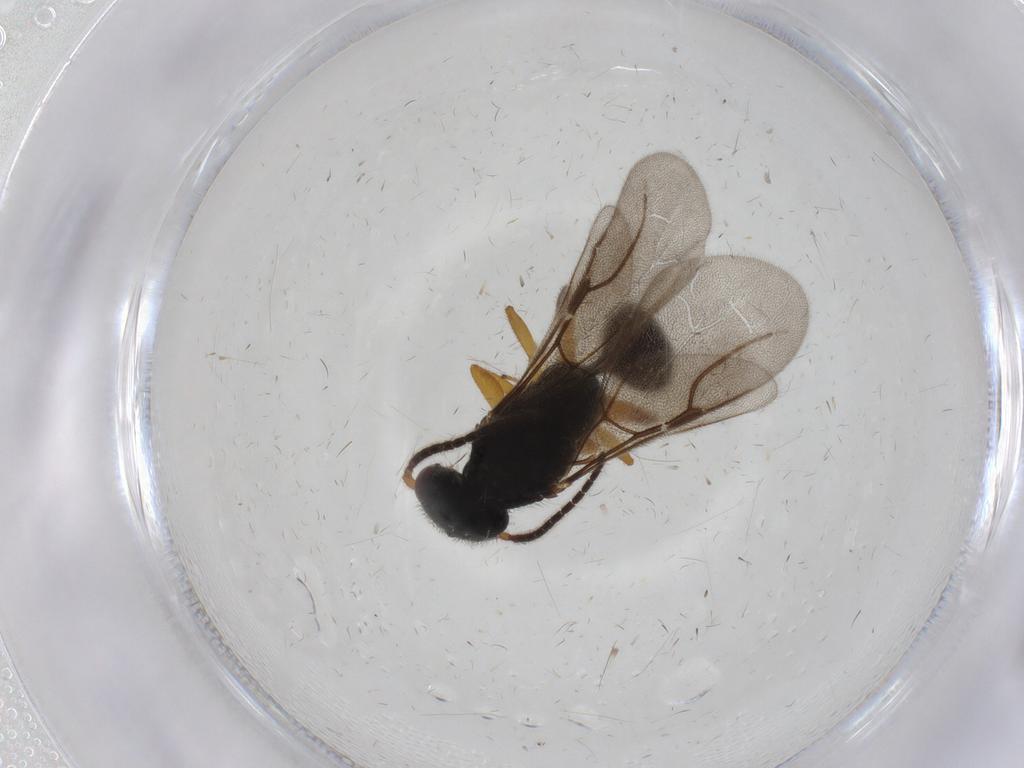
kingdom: Animalia
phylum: Arthropoda
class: Insecta
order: Hymenoptera
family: Bethylidae
